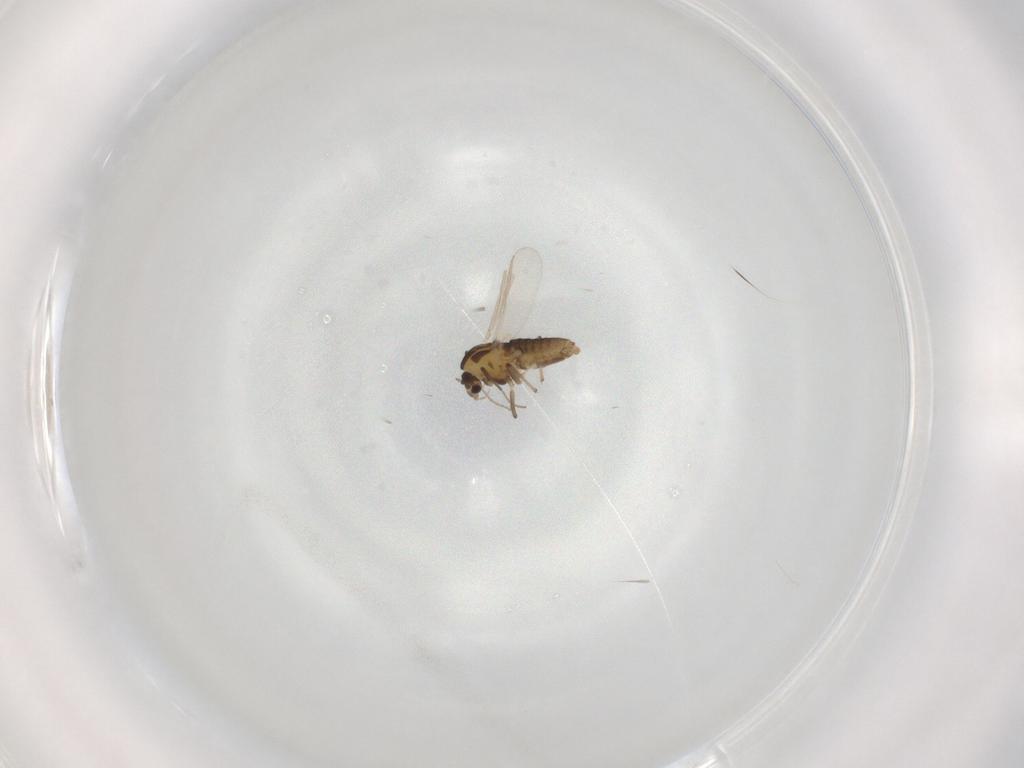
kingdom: Animalia
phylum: Arthropoda
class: Insecta
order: Diptera
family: Chironomidae
